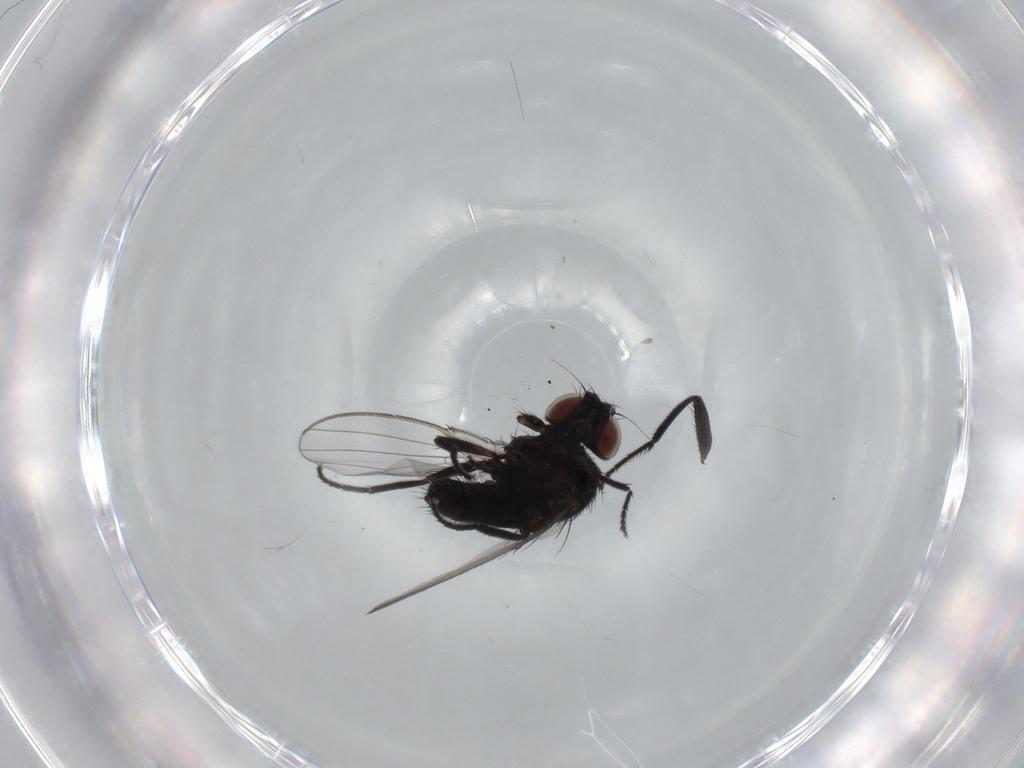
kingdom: Animalia
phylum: Arthropoda
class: Insecta
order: Diptera
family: Milichiidae
